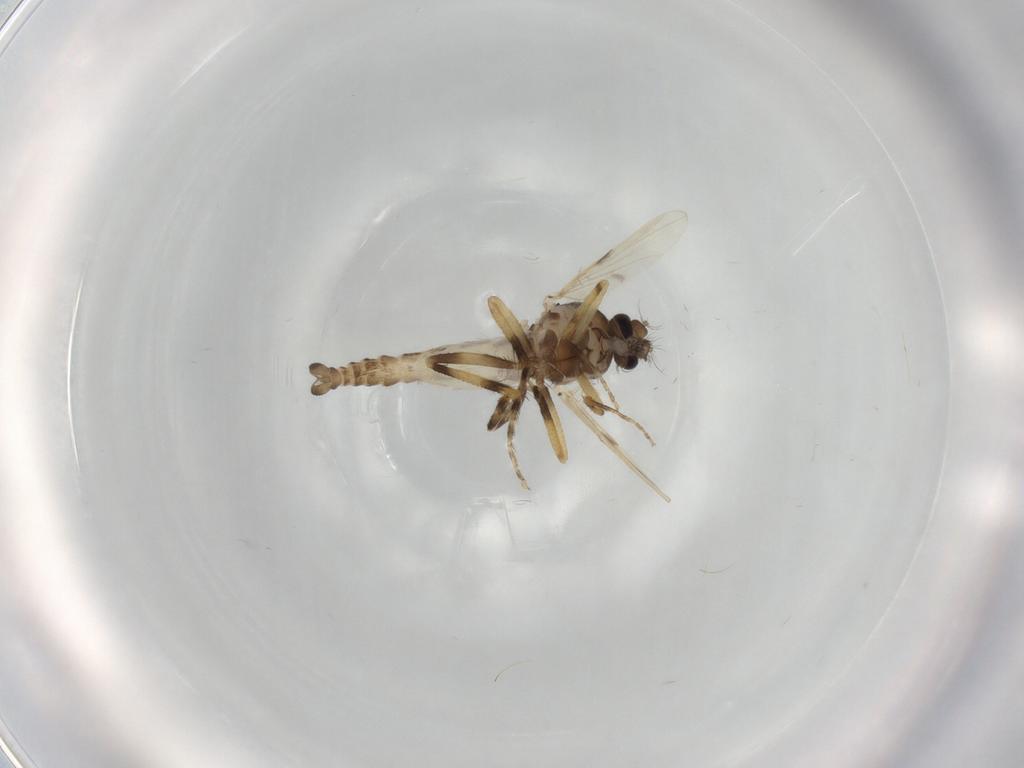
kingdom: Animalia
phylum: Arthropoda
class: Insecta
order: Diptera
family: Ceratopogonidae
